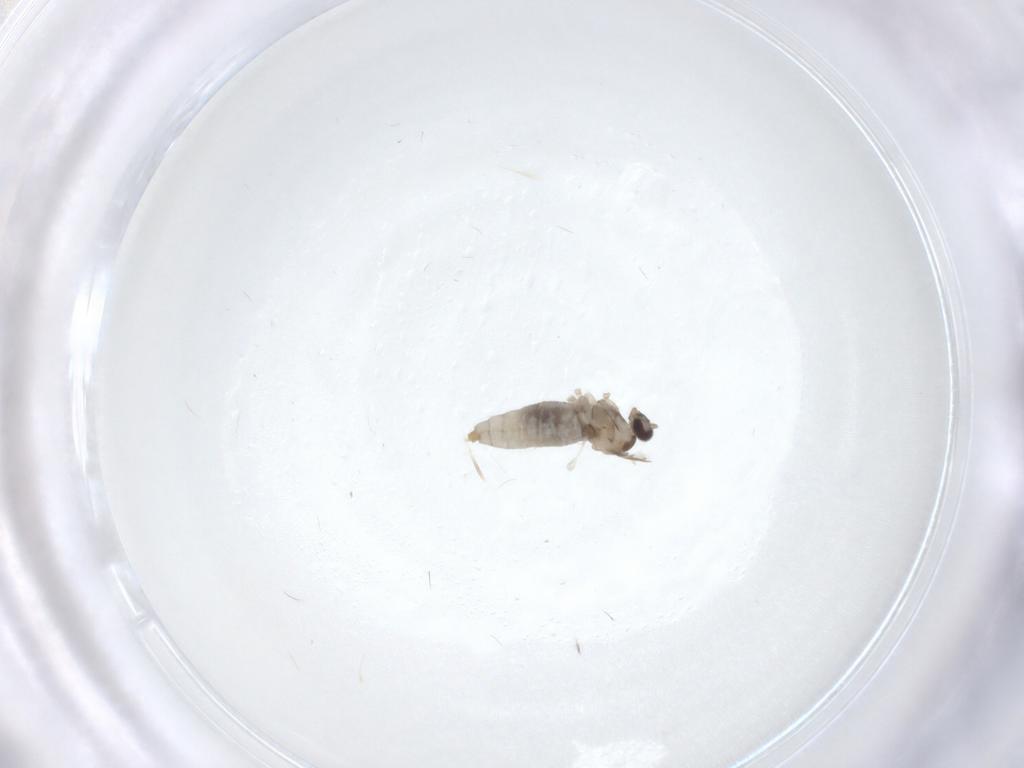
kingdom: Animalia
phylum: Arthropoda
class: Insecta
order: Diptera
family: Cecidomyiidae
